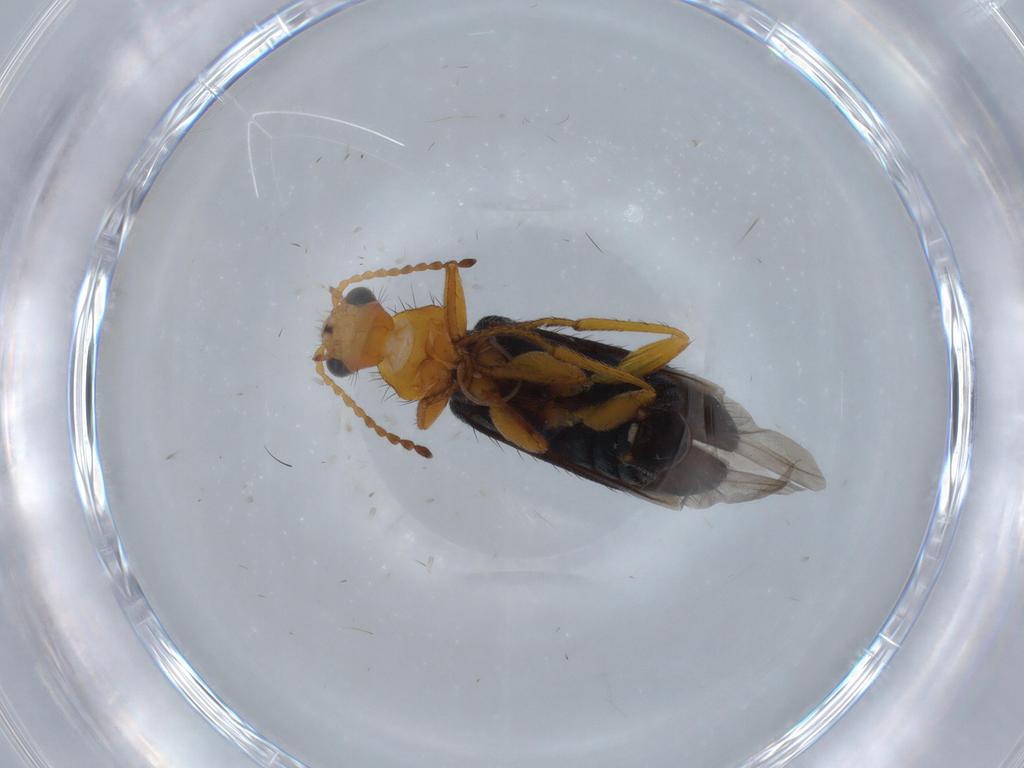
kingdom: Animalia
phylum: Arthropoda
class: Insecta
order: Coleoptera
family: Melyridae
